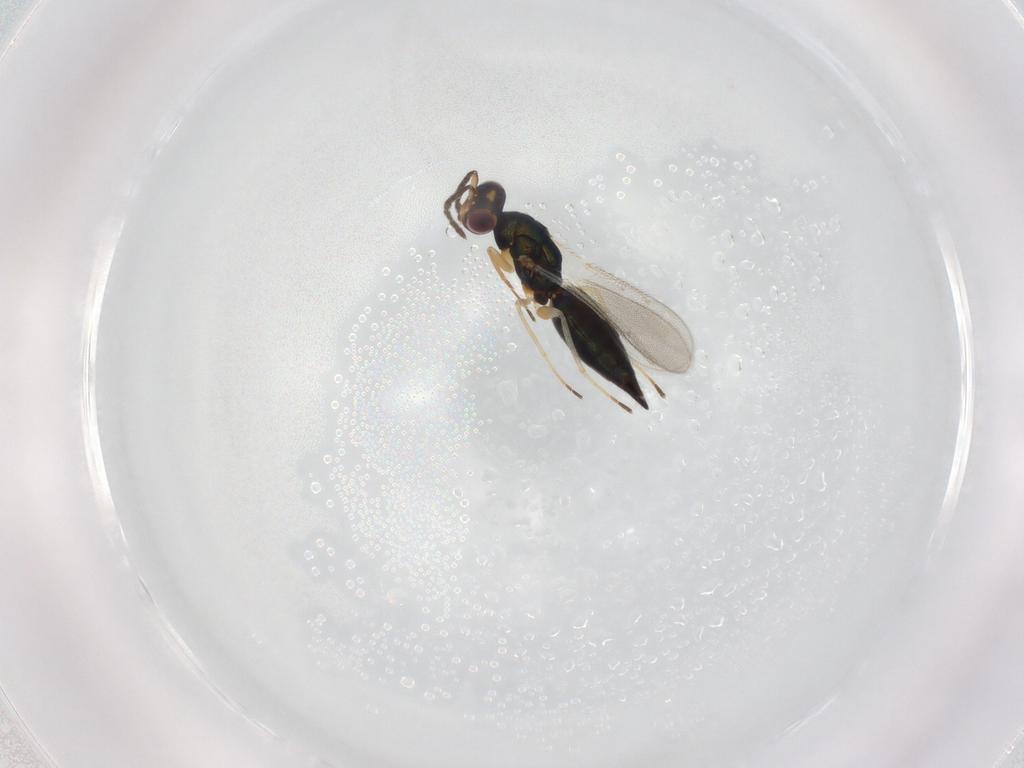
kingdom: Animalia
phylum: Arthropoda
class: Insecta
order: Hymenoptera
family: Eulophidae
